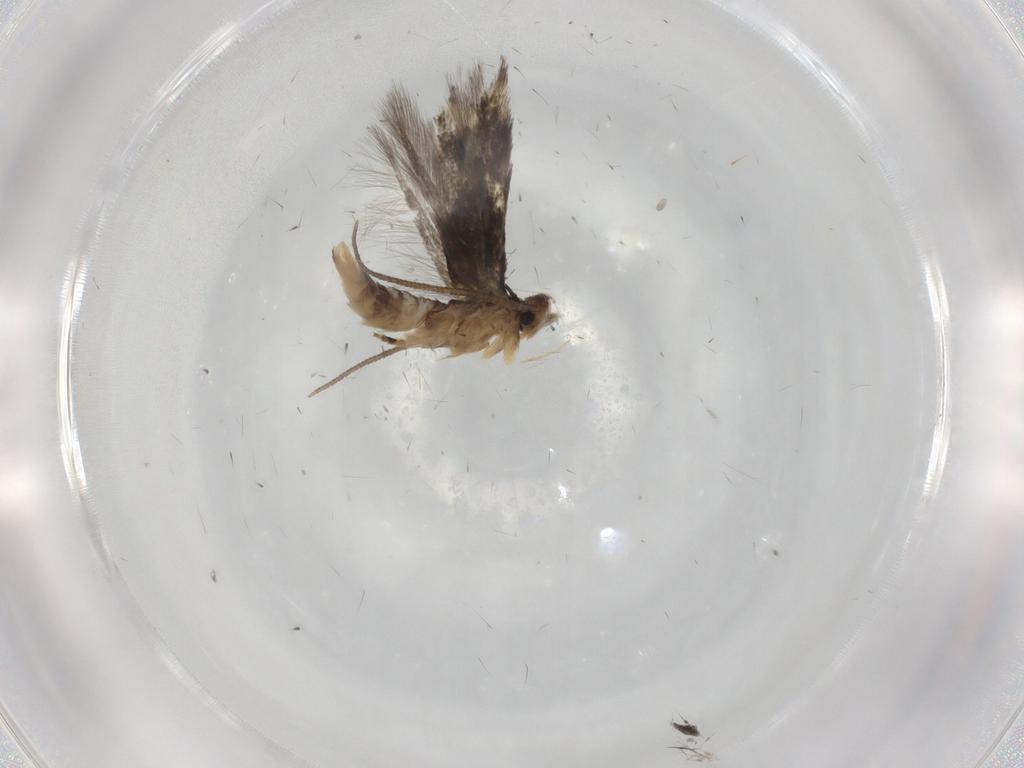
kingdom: Animalia
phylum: Arthropoda
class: Insecta
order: Lepidoptera
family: Elachistidae
